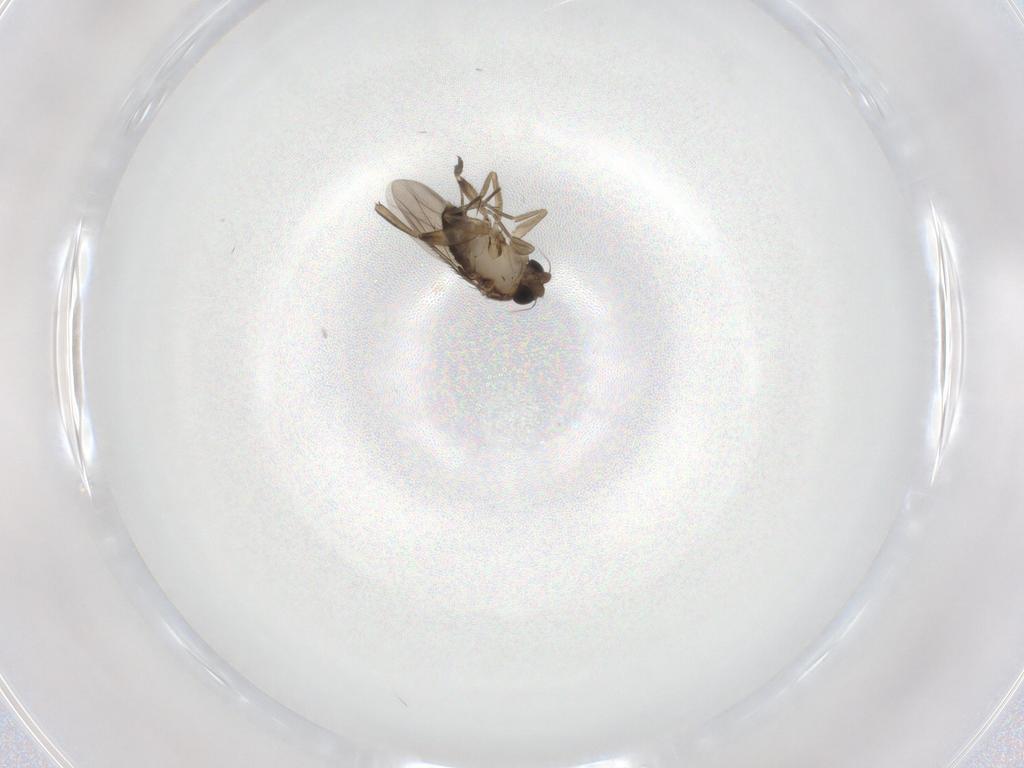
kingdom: Animalia
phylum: Arthropoda
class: Insecta
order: Diptera
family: Phoridae
